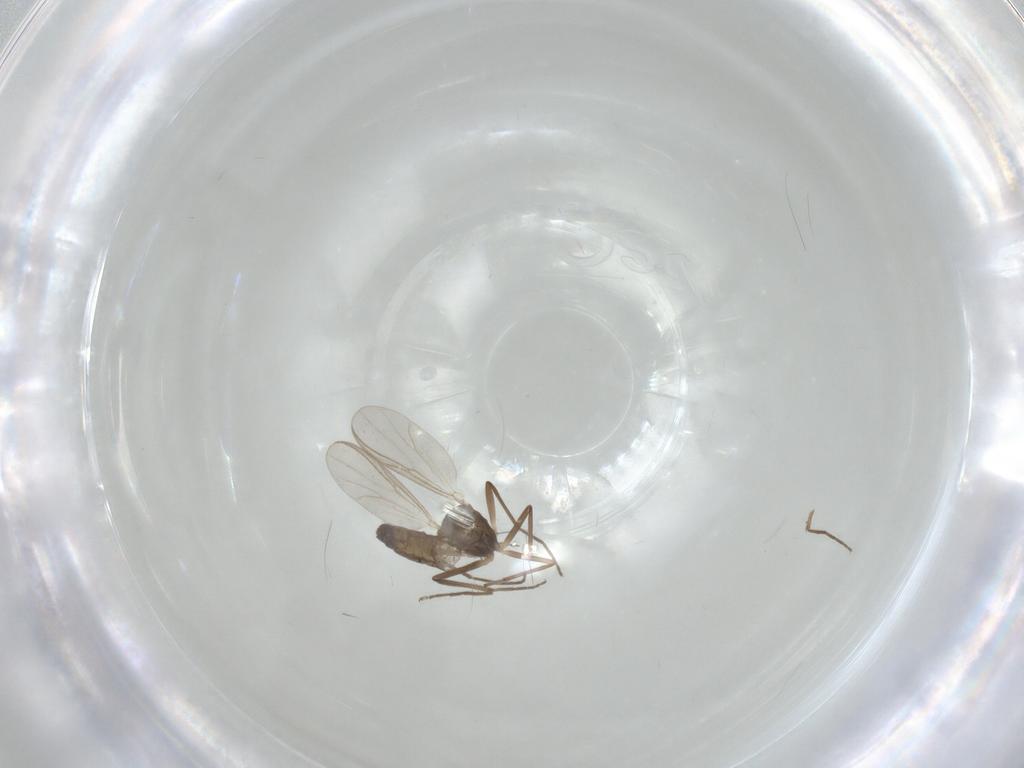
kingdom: Animalia
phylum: Arthropoda
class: Insecta
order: Diptera
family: Chironomidae
